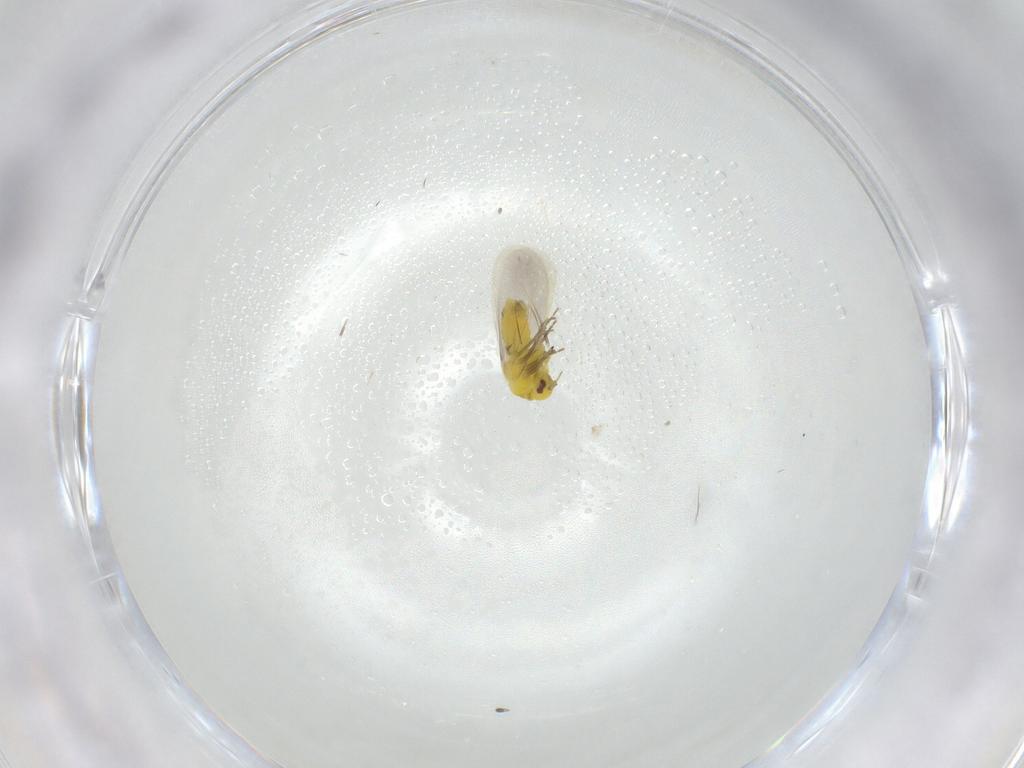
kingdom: Animalia
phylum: Arthropoda
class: Insecta
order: Hemiptera
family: Aleyrodidae
